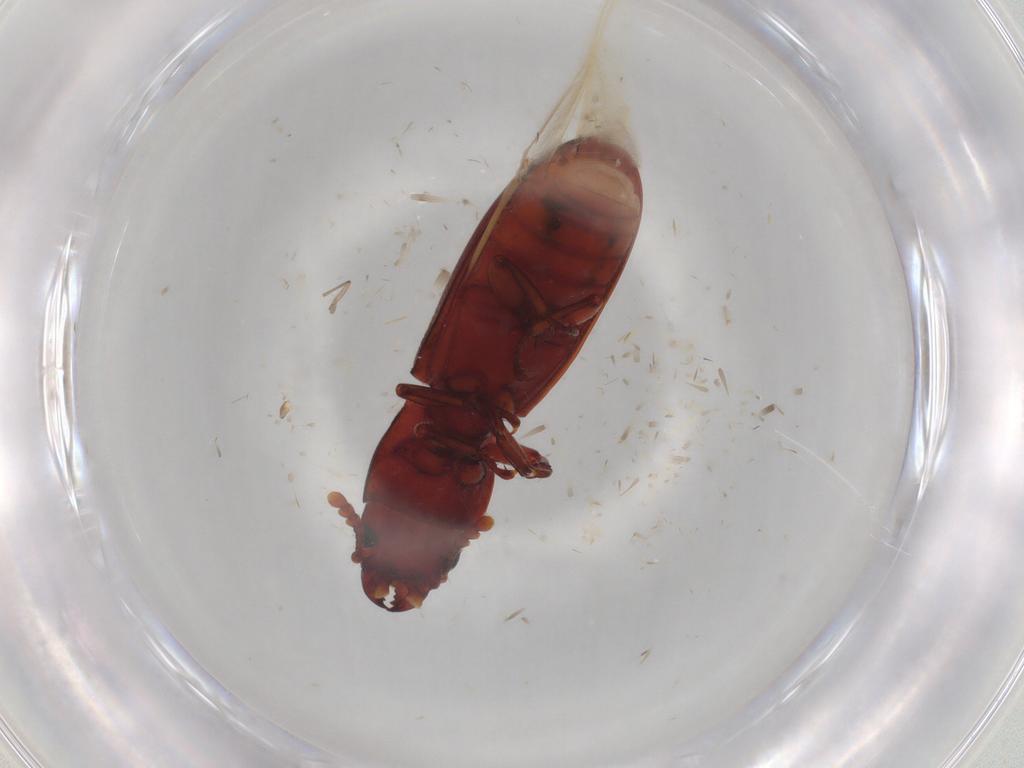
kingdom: Animalia
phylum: Arthropoda
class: Insecta
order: Coleoptera
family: Trogossitidae
